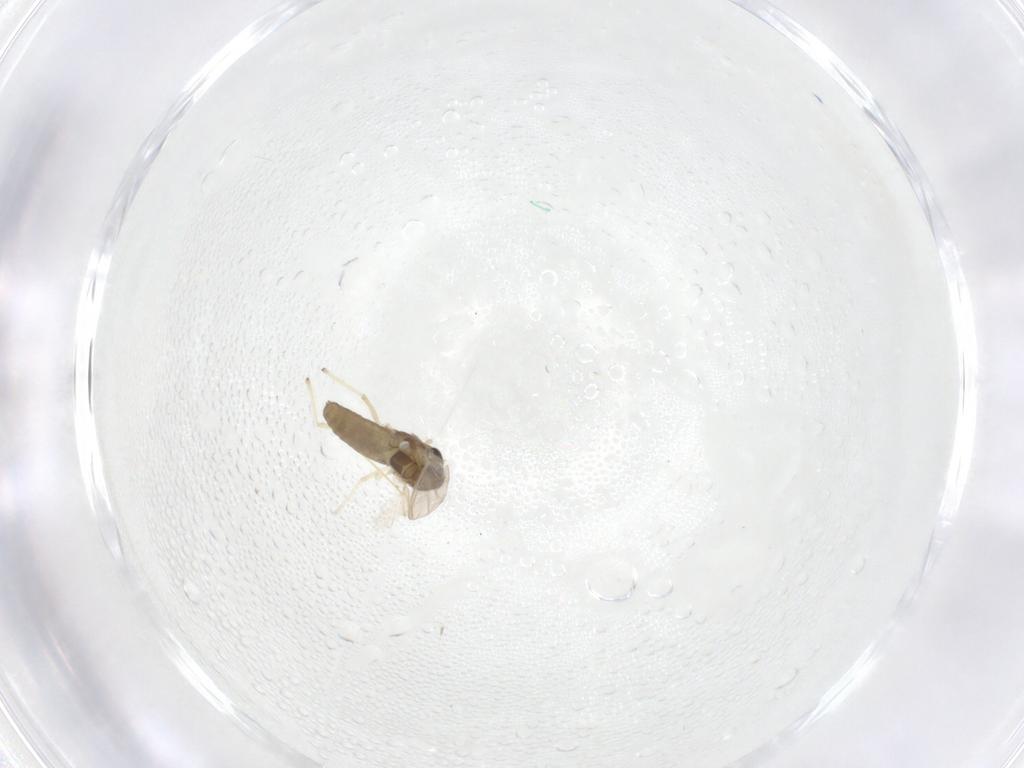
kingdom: Animalia
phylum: Arthropoda
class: Insecta
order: Diptera
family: Chironomidae
